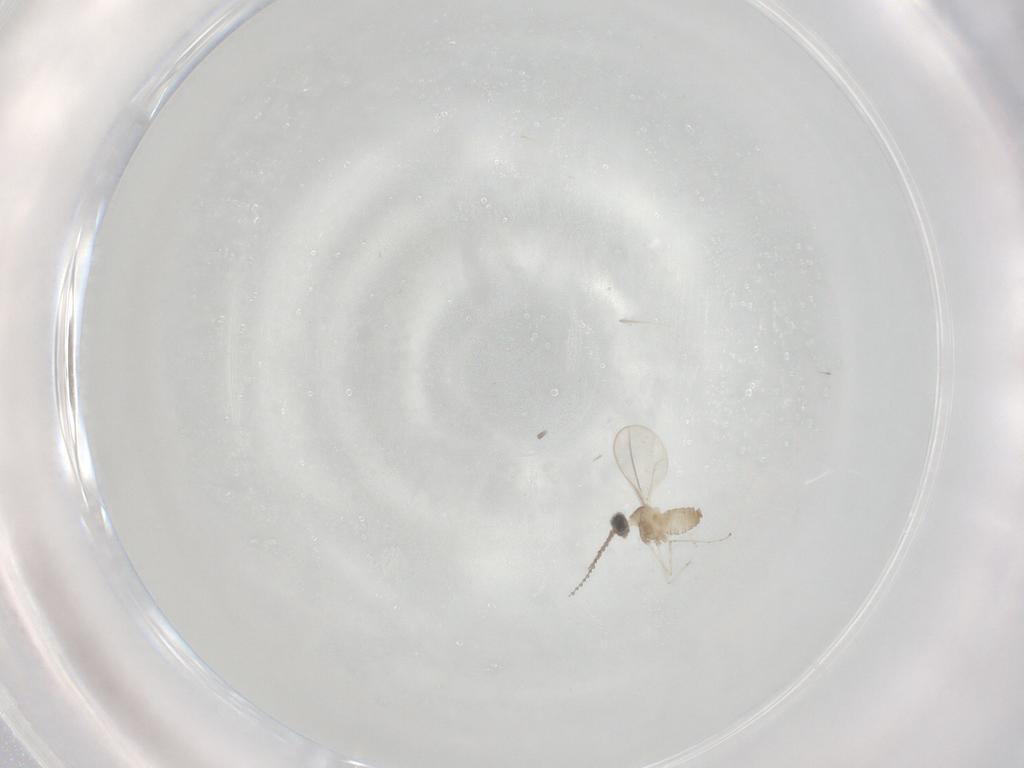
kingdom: Animalia
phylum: Arthropoda
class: Insecta
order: Diptera
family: Cecidomyiidae
